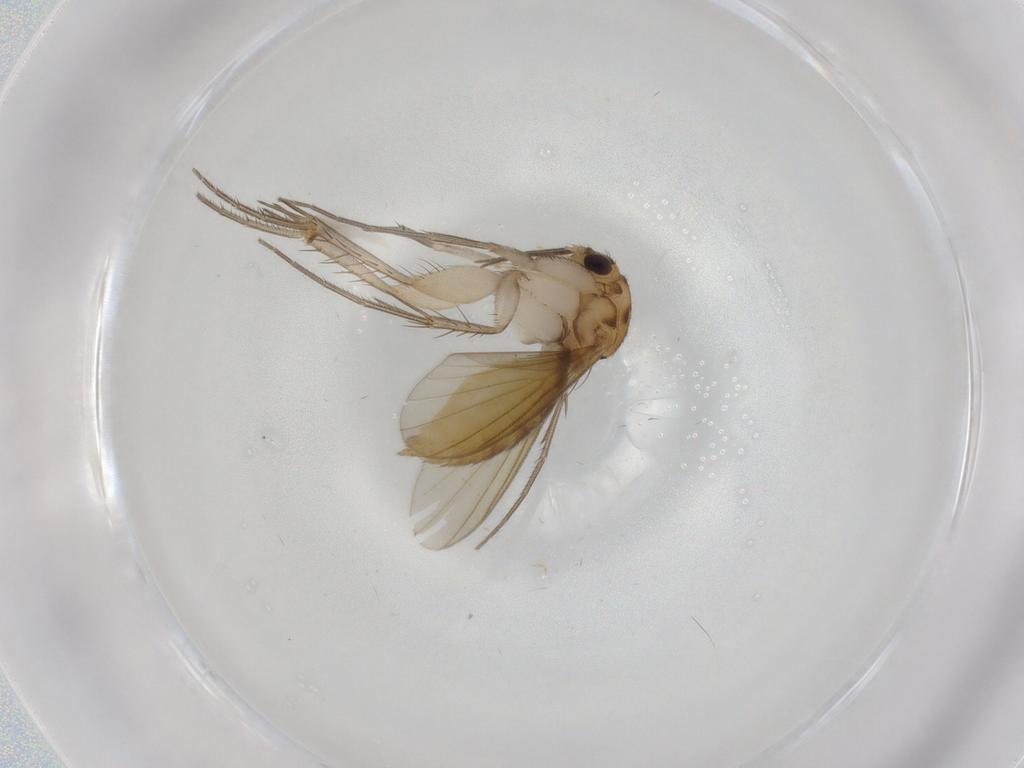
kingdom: Animalia
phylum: Arthropoda
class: Insecta
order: Diptera
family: Mycetophilidae
